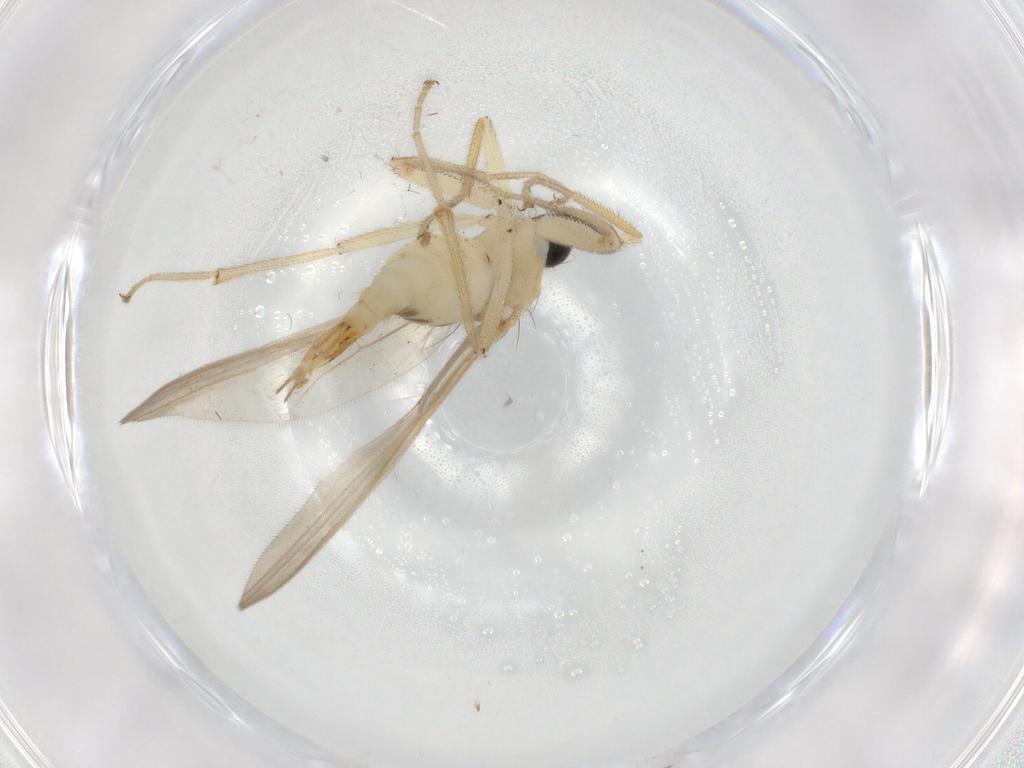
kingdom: Animalia
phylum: Arthropoda
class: Insecta
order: Diptera
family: Hybotidae
